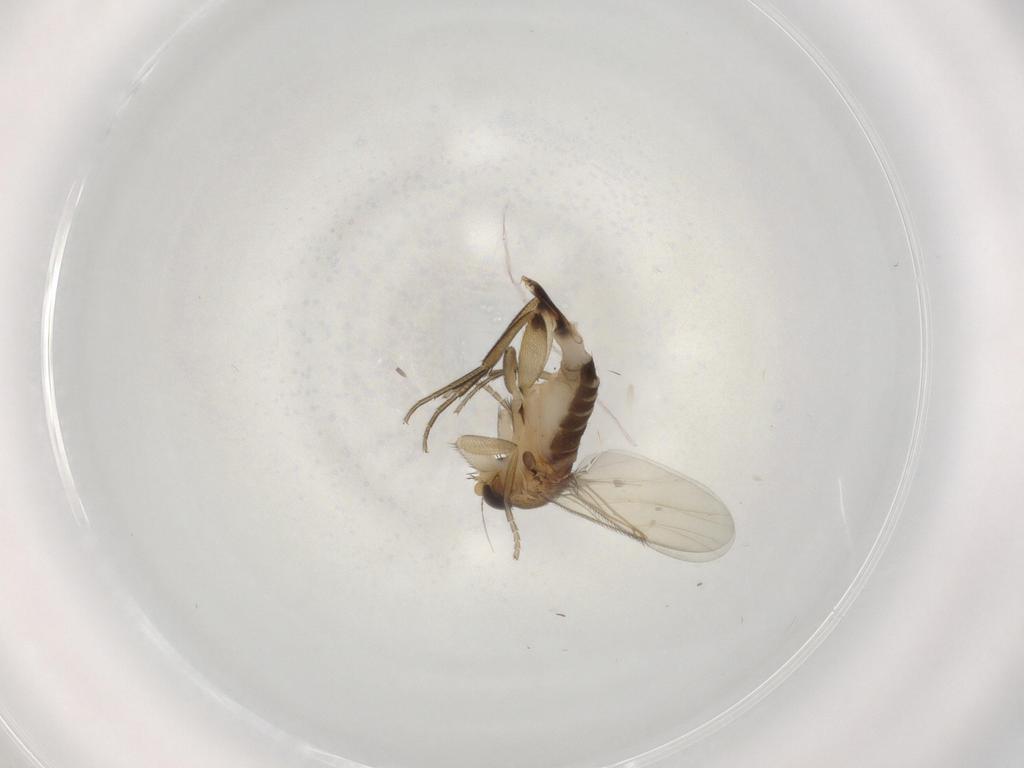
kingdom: Animalia
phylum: Arthropoda
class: Insecta
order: Diptera
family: Phoridae
